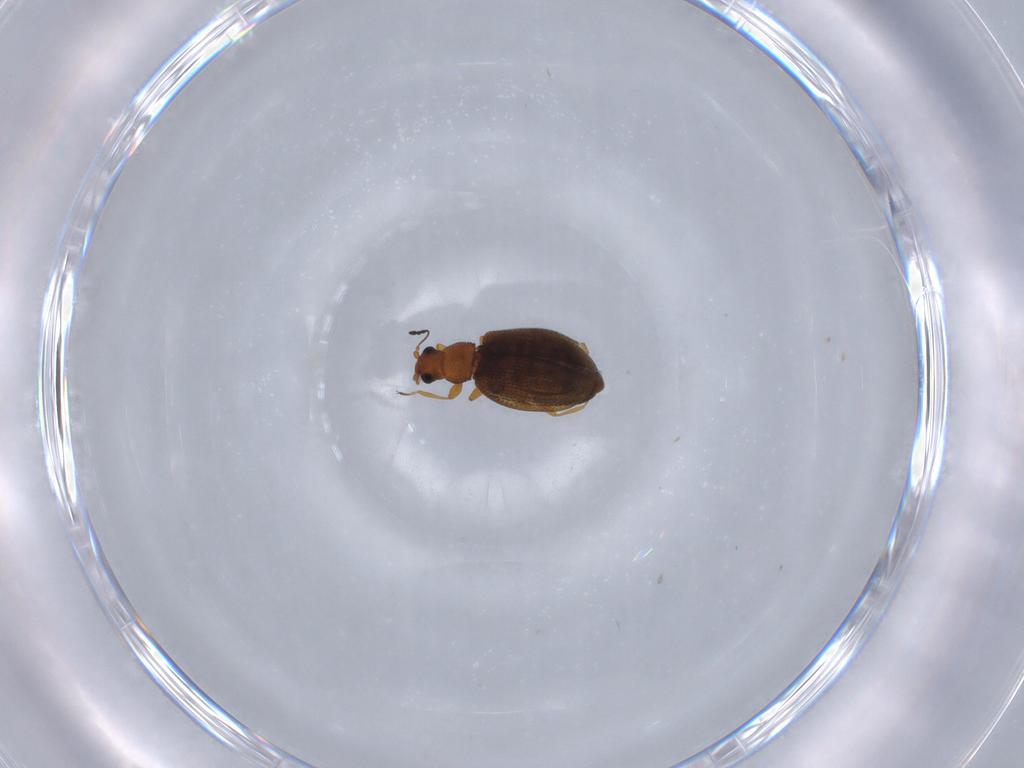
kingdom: Animalia
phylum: Arthropoda
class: Insecta
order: Coleoptera
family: Latridiidae
